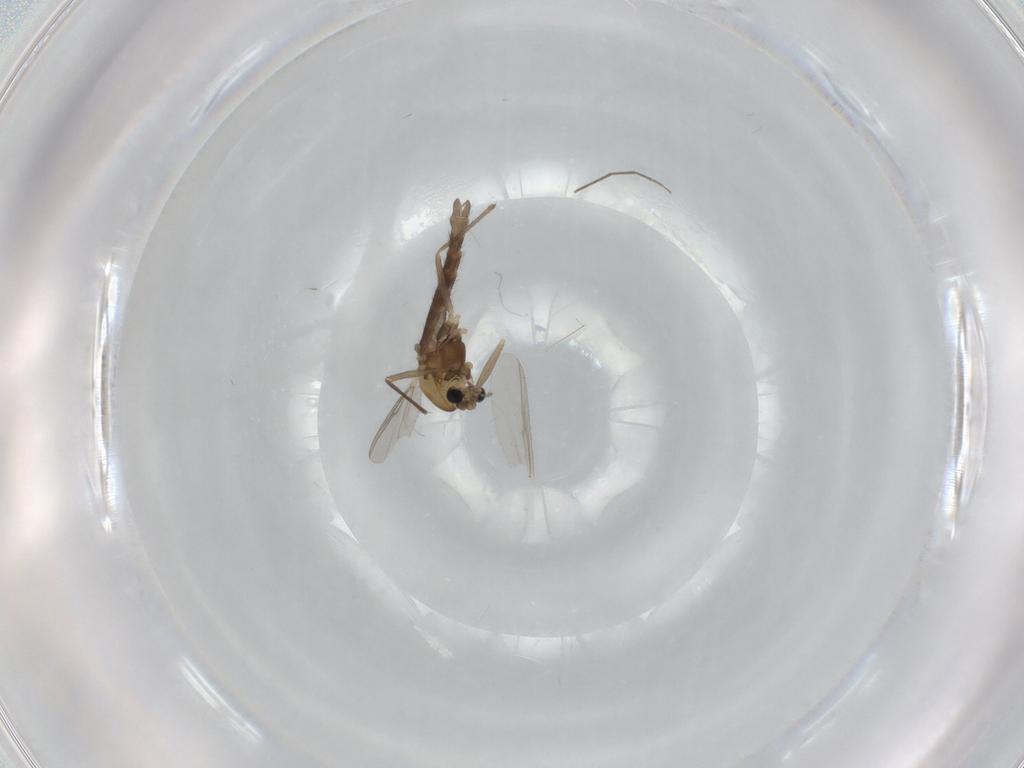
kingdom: Animalia
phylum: Arthropoda
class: Insecta
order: Diptera
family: Chironomidae
